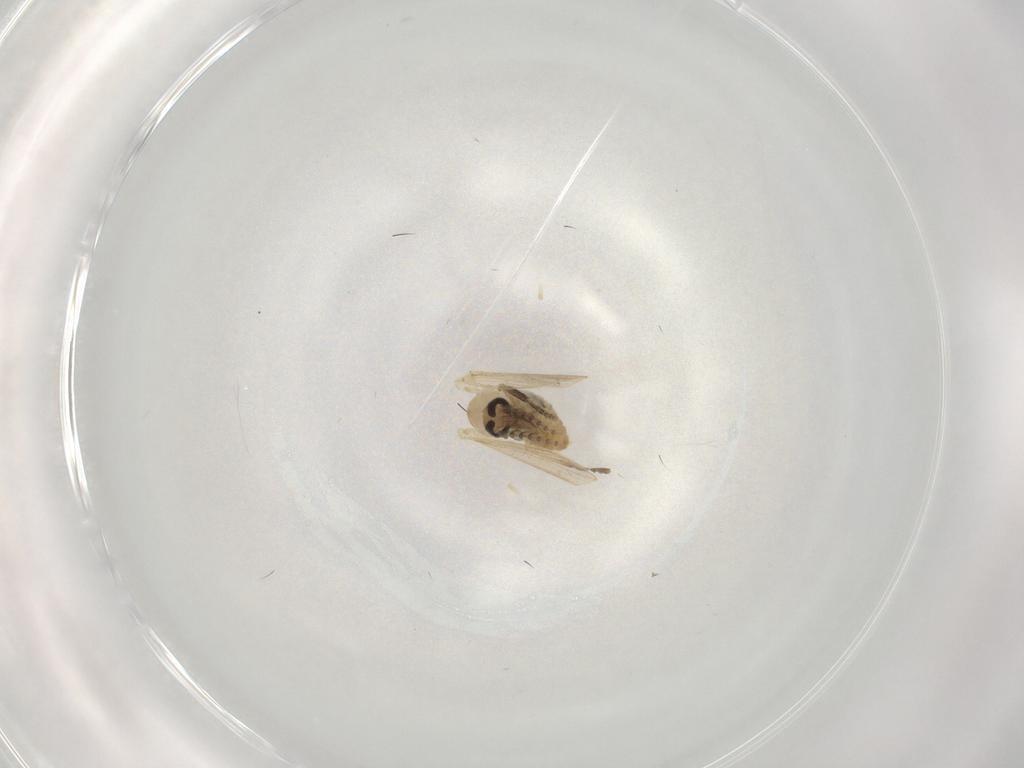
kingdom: Animalia
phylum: Arthropoda
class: Insecta
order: Diptera
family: Psychodidae
